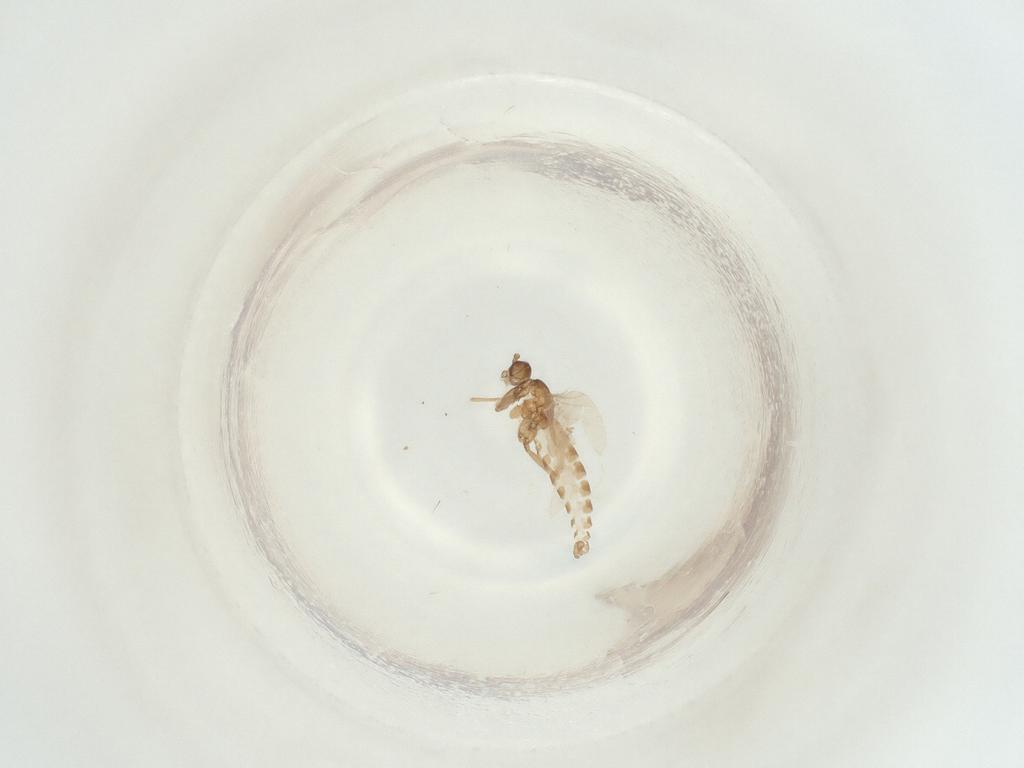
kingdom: Animalia
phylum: Arthropoda
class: Insecta
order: Diptera
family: Sciaridae
